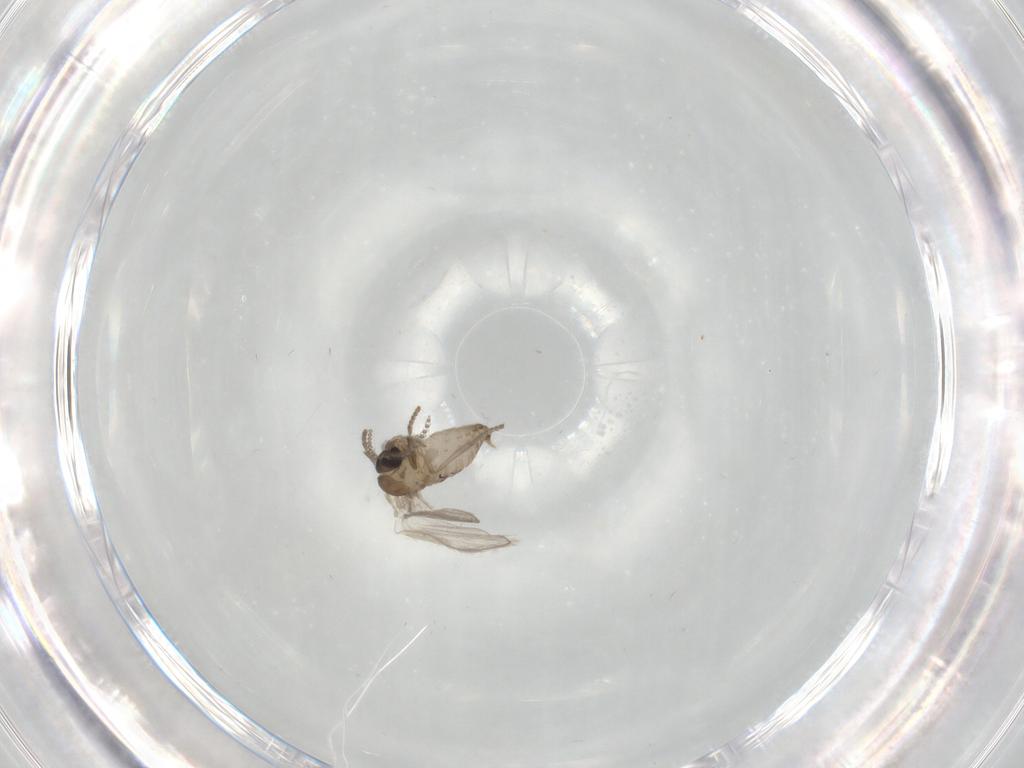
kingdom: Animalia
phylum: Arthropoda
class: Insecta
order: Diptera
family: Psychodidae
